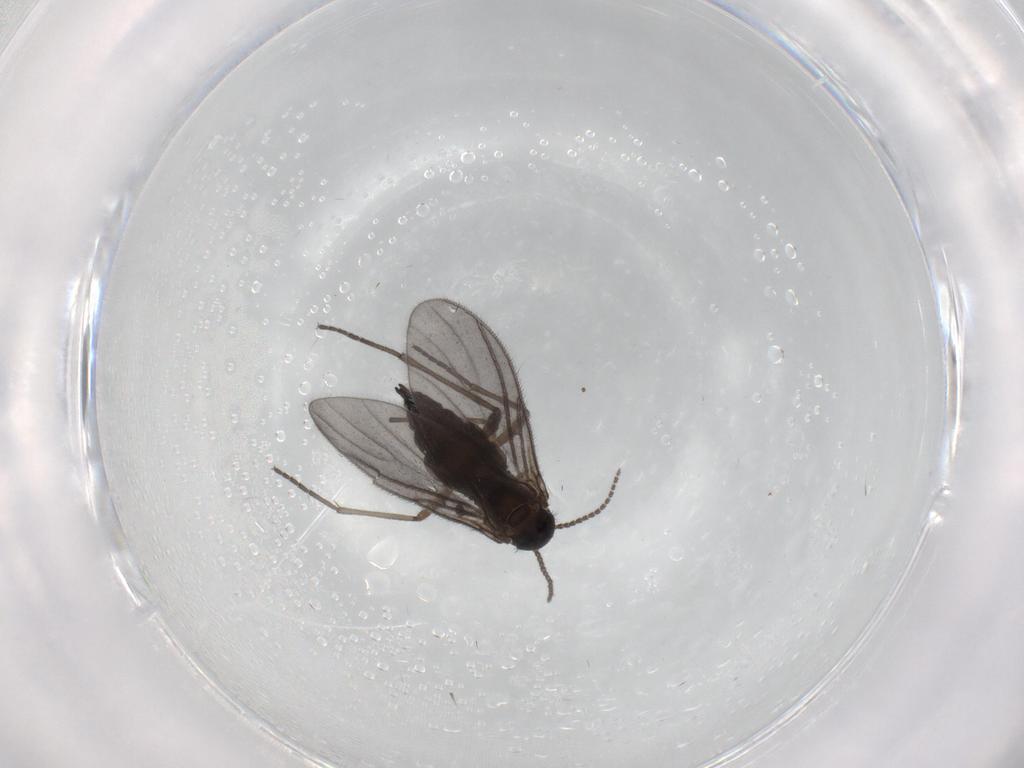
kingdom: Animalia
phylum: Arthropoda
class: Insecta
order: Diptera
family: Sciaridae
